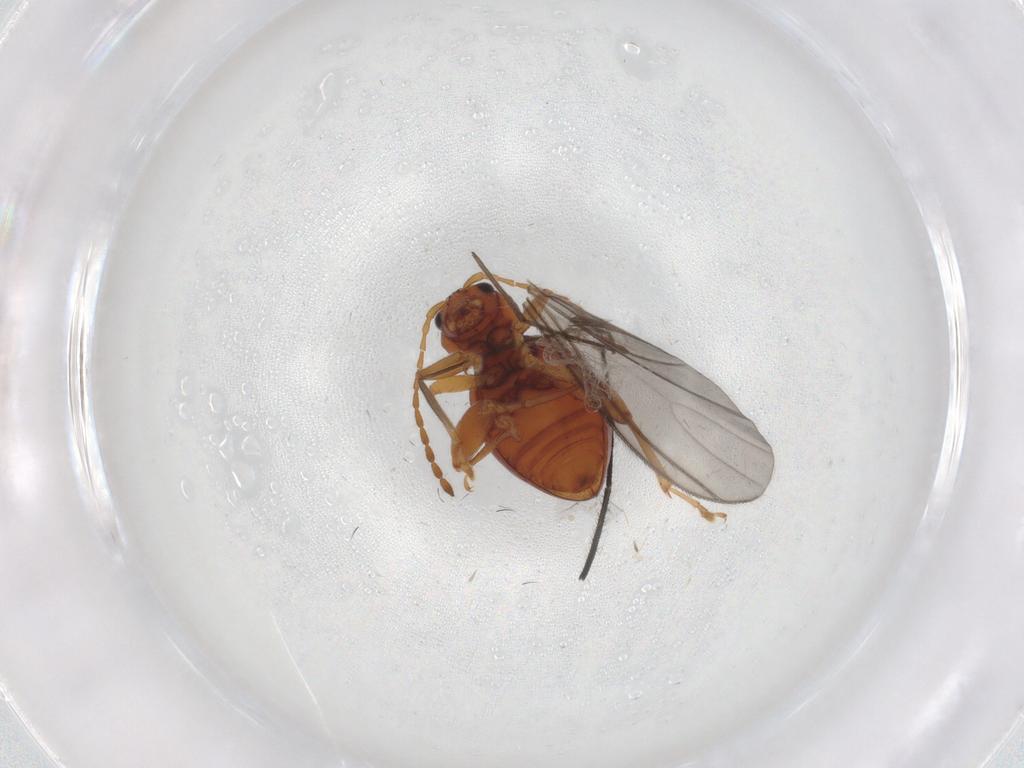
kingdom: Animalia
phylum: Arthropoda
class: Insecta
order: Coleoptera
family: Chrysomelidae
